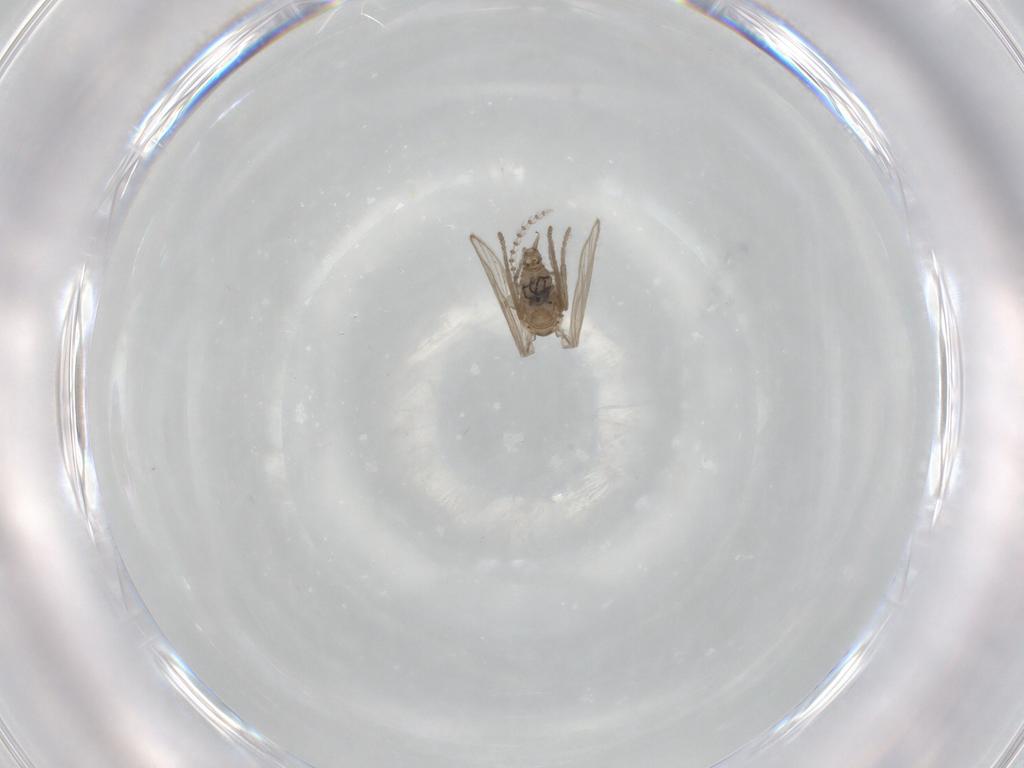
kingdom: Animalia
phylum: Arthropoda
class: Insecta
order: Diptera
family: Psychodidae
